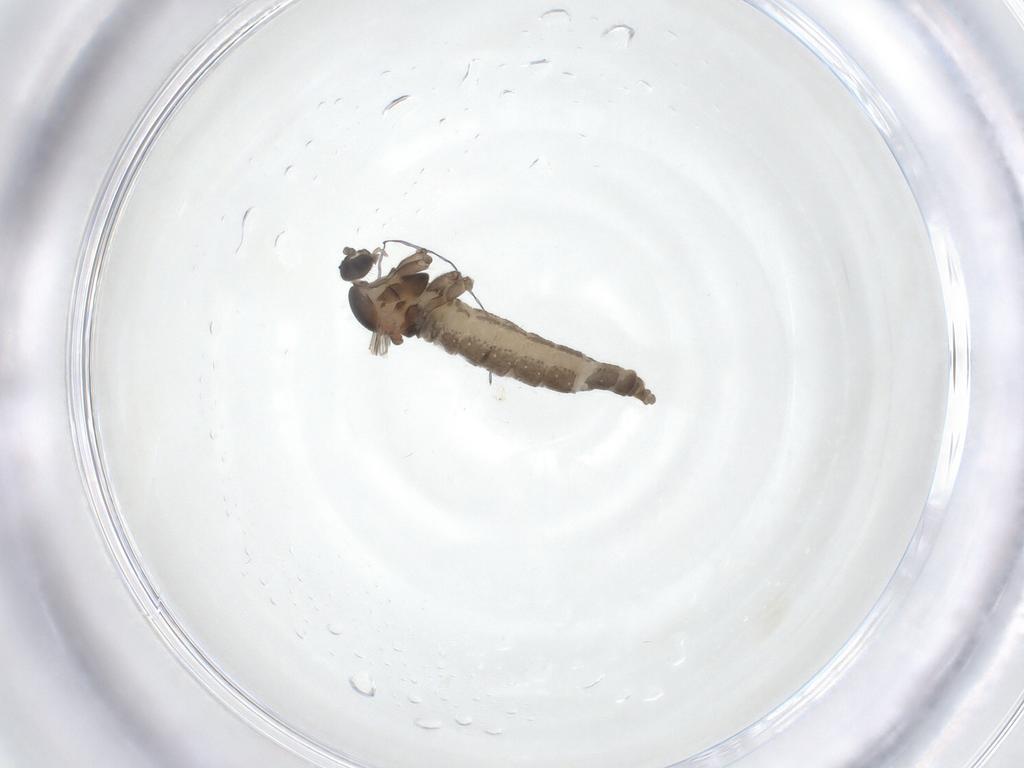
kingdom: Animalia
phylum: Arthropoda
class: Insecta
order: Diptera
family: Cecidomyiidae
